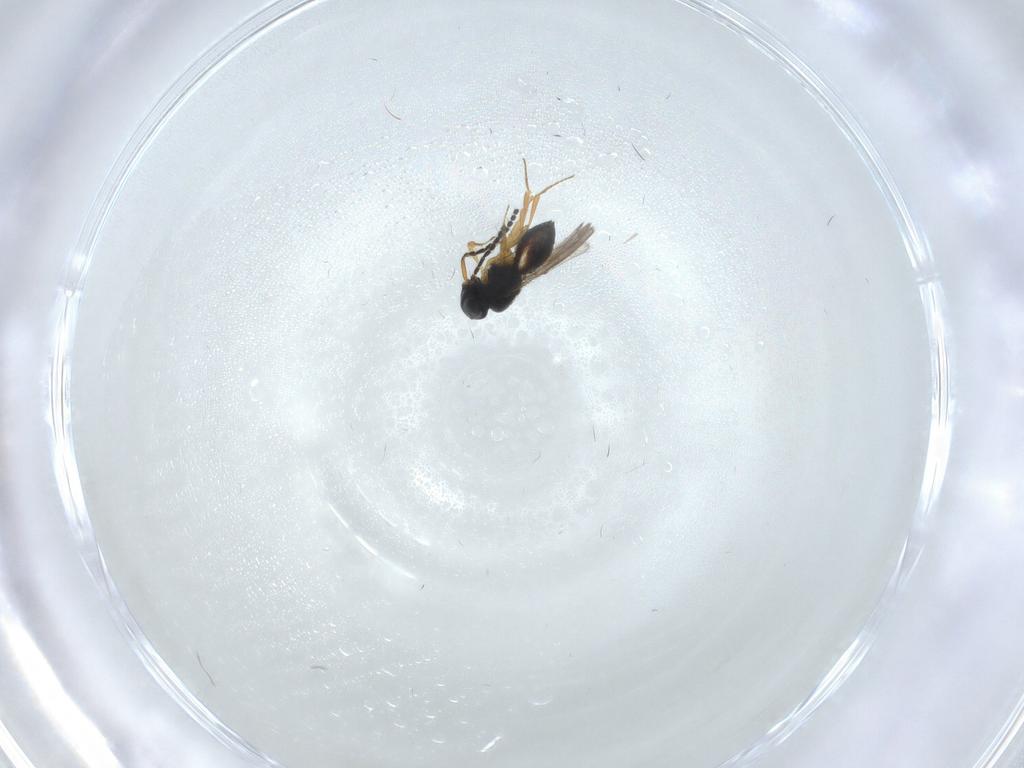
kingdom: Animalia
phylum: Arthropoda
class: Insecta
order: Hymenoptera
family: Scelionidae
